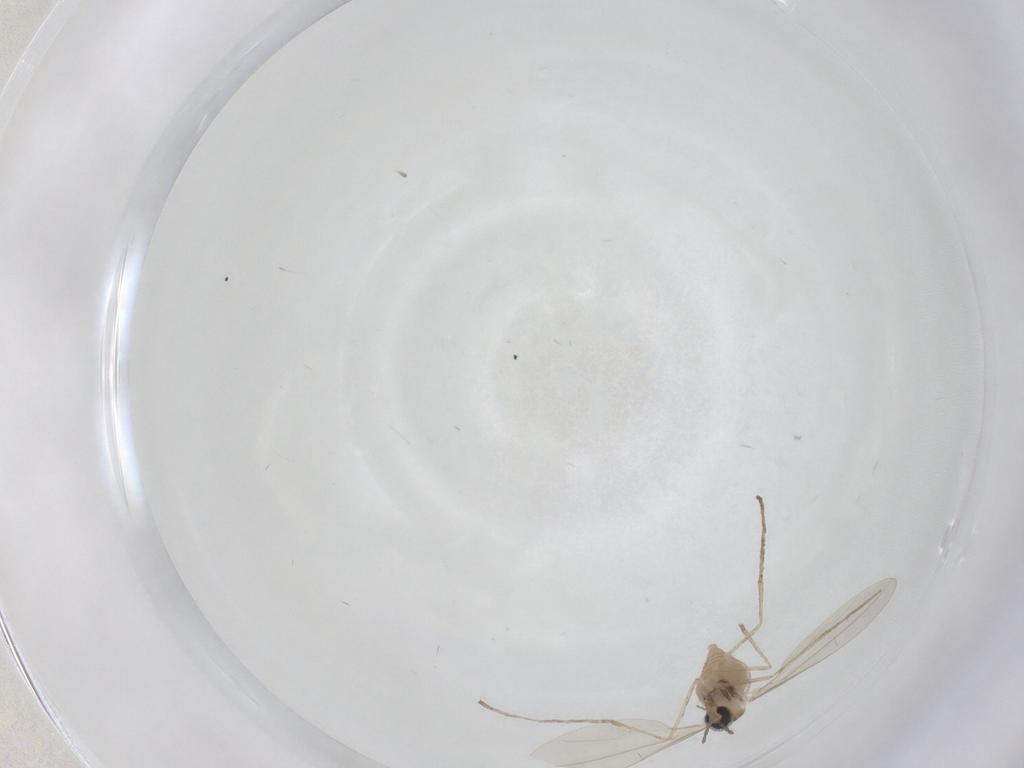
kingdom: Animalia
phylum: Arthropoda
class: Insecta
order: Diptera
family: Cecidomyiidae
